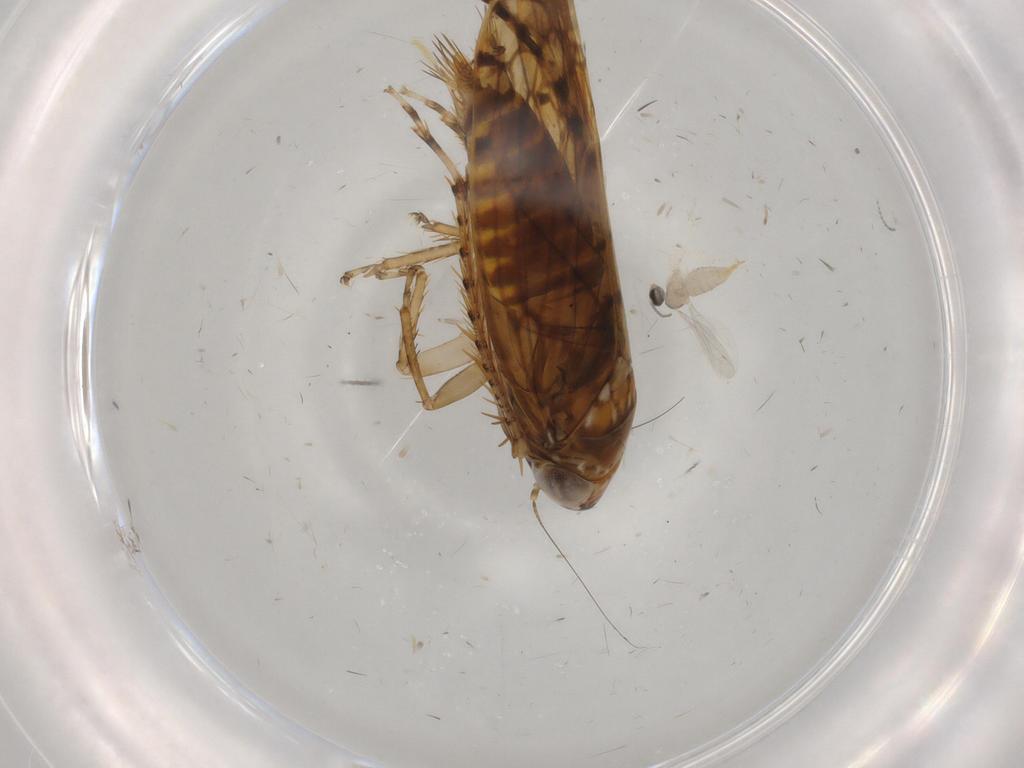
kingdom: Animalia
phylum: Arthropoda
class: Insecta
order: Hemiptera
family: Cicadellidae
